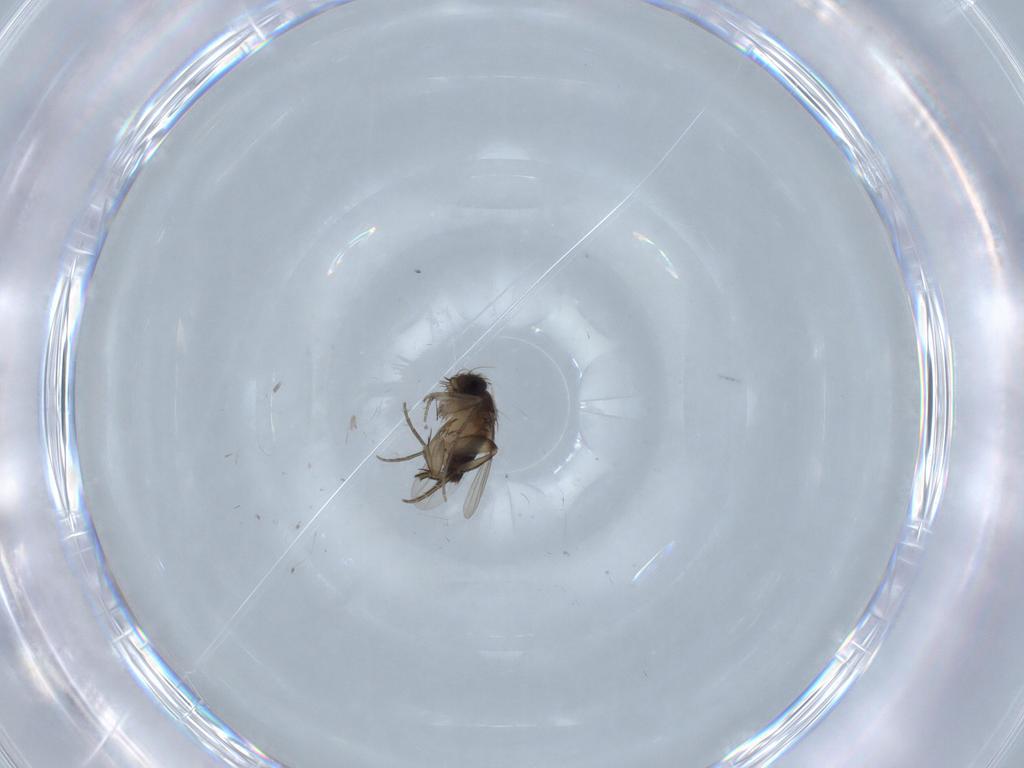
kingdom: Animalia
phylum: Arthropoda
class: Insecta
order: Diptera
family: Phoridae
